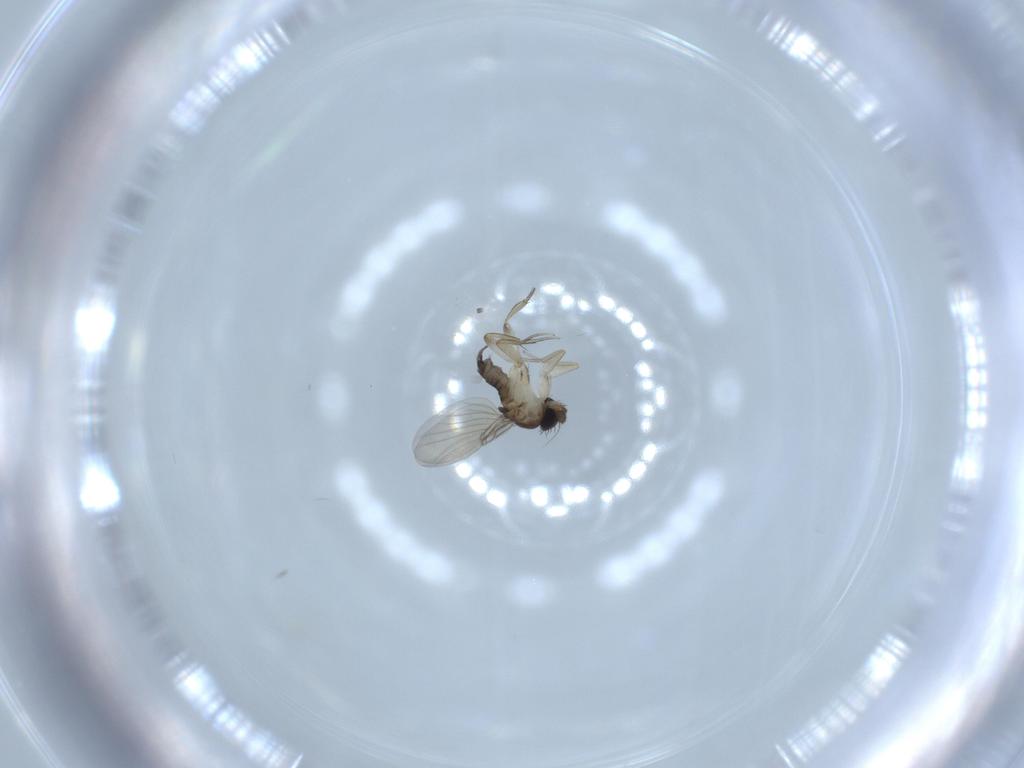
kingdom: Animalia
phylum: Arthropoda
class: Insecta
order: Diptera
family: Phoridae
